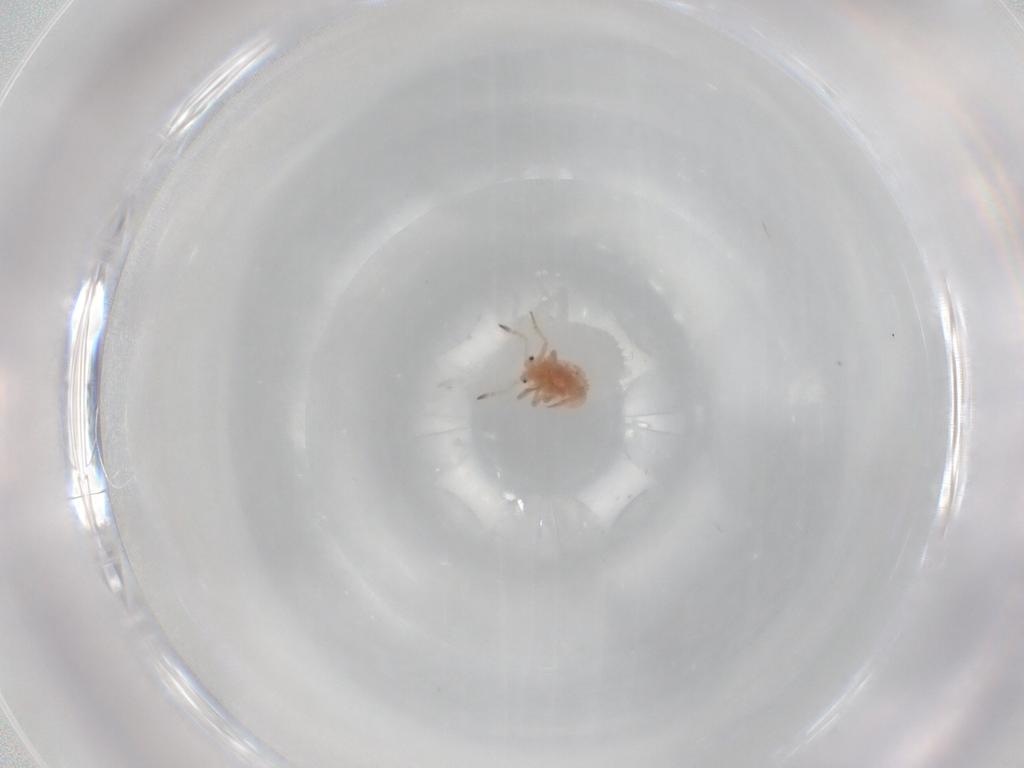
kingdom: Animalia
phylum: Arthropoda
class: Insecta
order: Hemiptera
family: Coccoidea_incertae_sedis
